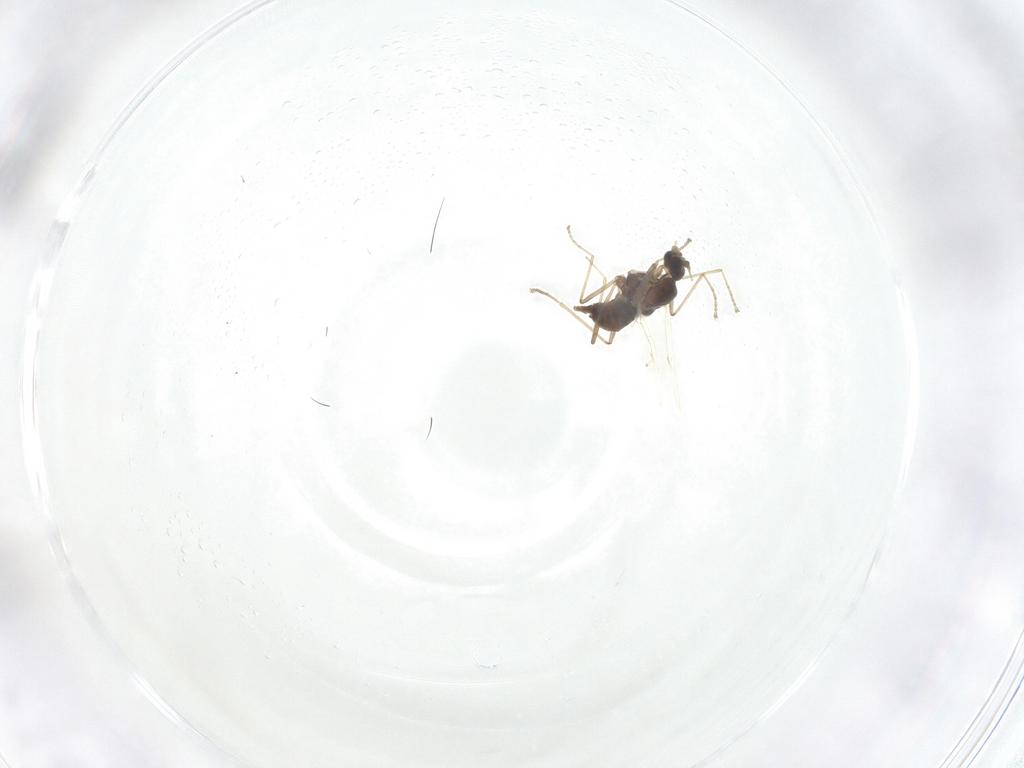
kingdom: Animalia
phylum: Arthropoda
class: Insecta
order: Diptera
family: Cecidomyiidae
